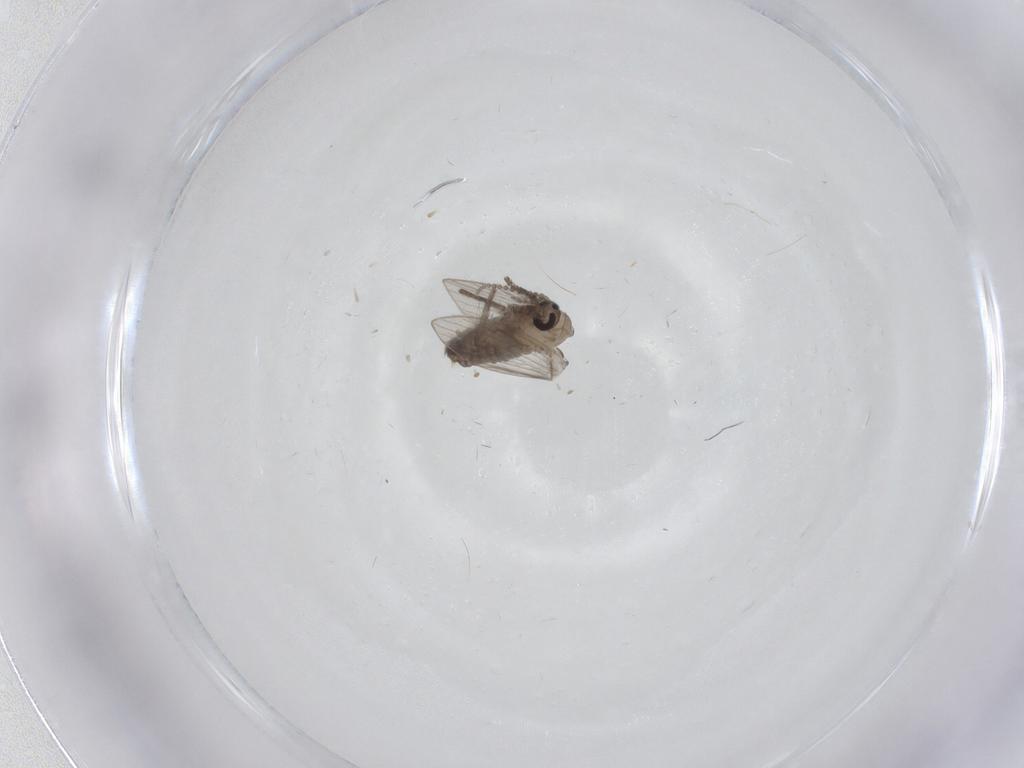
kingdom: Animalia
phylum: Arthropoda
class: Insecta
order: Diptera
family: Psychodidae
